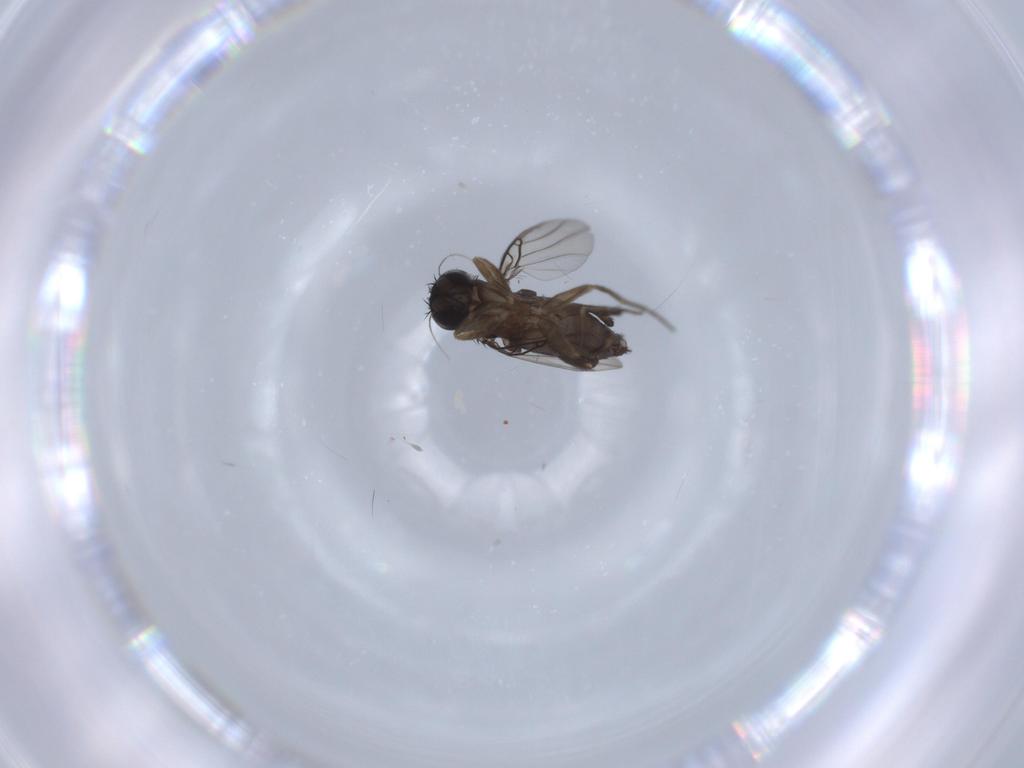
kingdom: Animalia
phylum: Arthropoda
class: Insecta
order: Diptera
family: Phoridae
